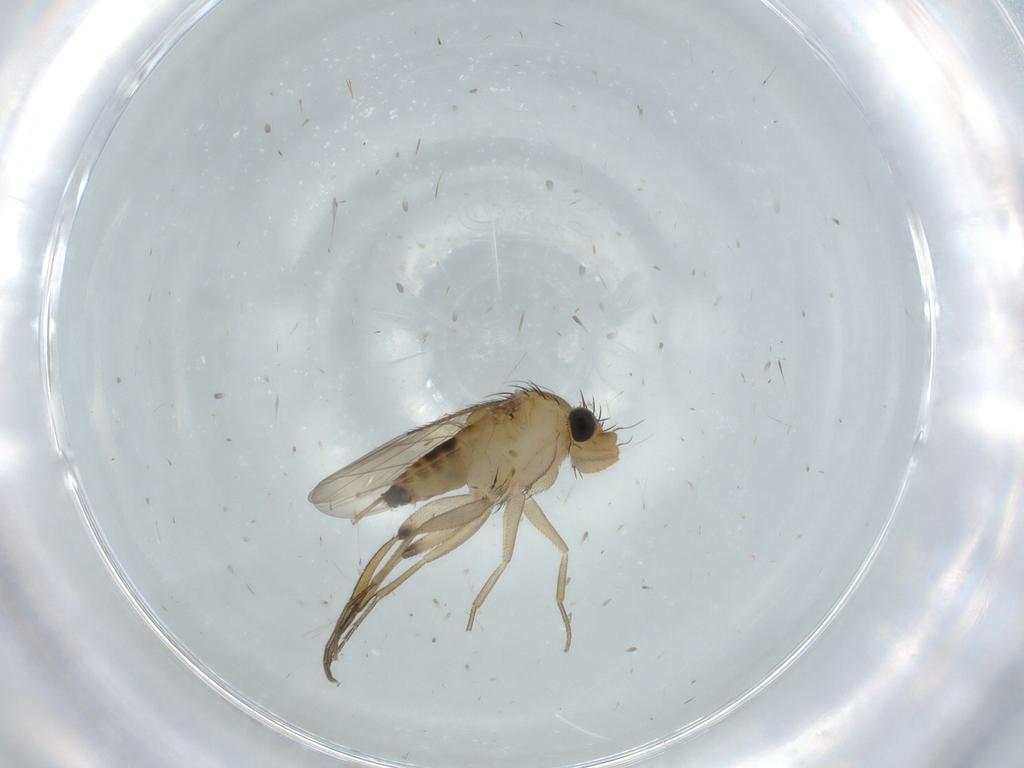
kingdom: Animalia
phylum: Arthropoda
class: Insecta
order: Diptera
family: Phoridae
